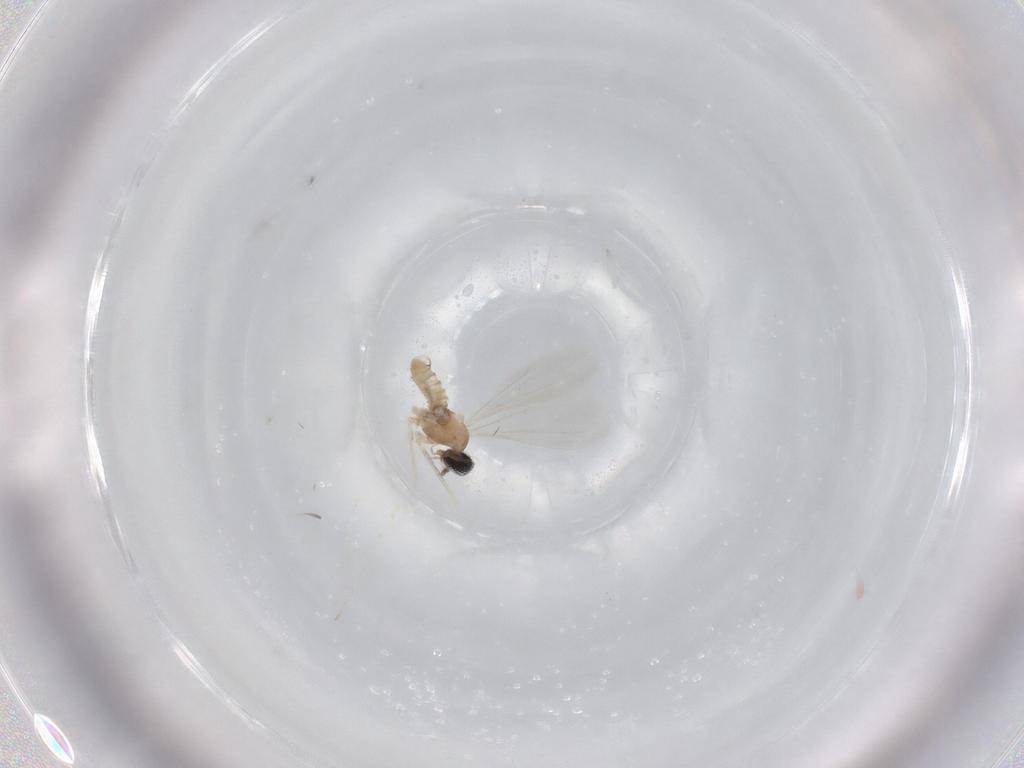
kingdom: Animalia
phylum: Arthropoda
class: Insecta
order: Diptera
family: Cecidomyiidae
